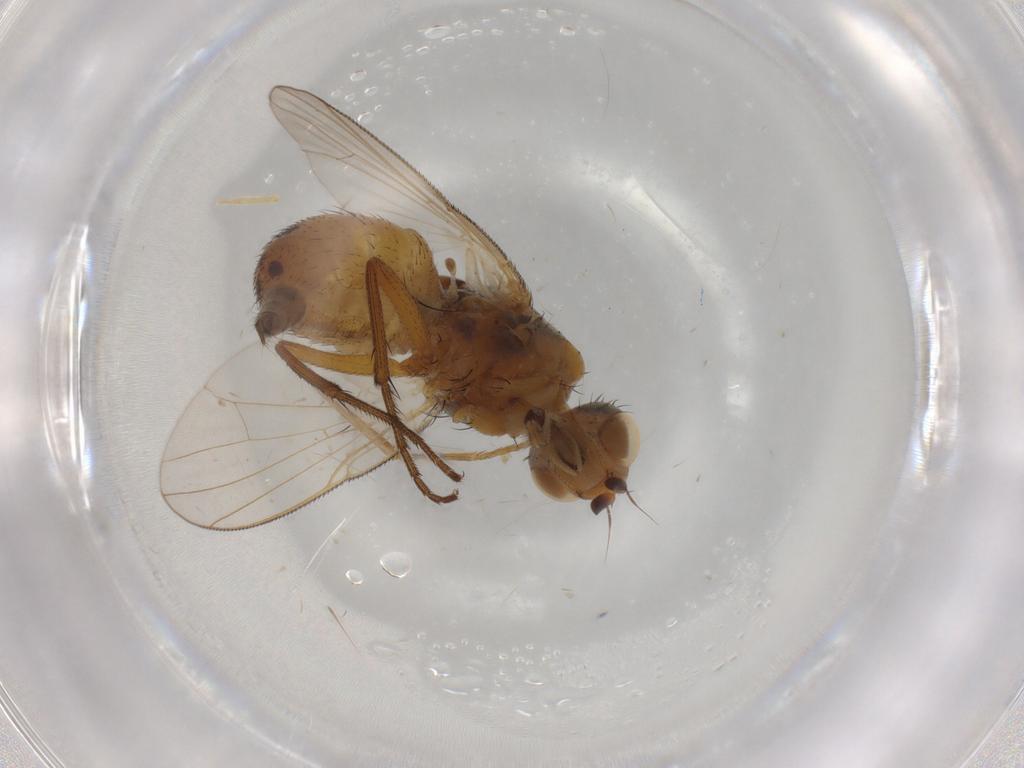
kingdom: Animalia
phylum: Arthropoda
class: Insecta
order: Diptera
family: Muscidae
